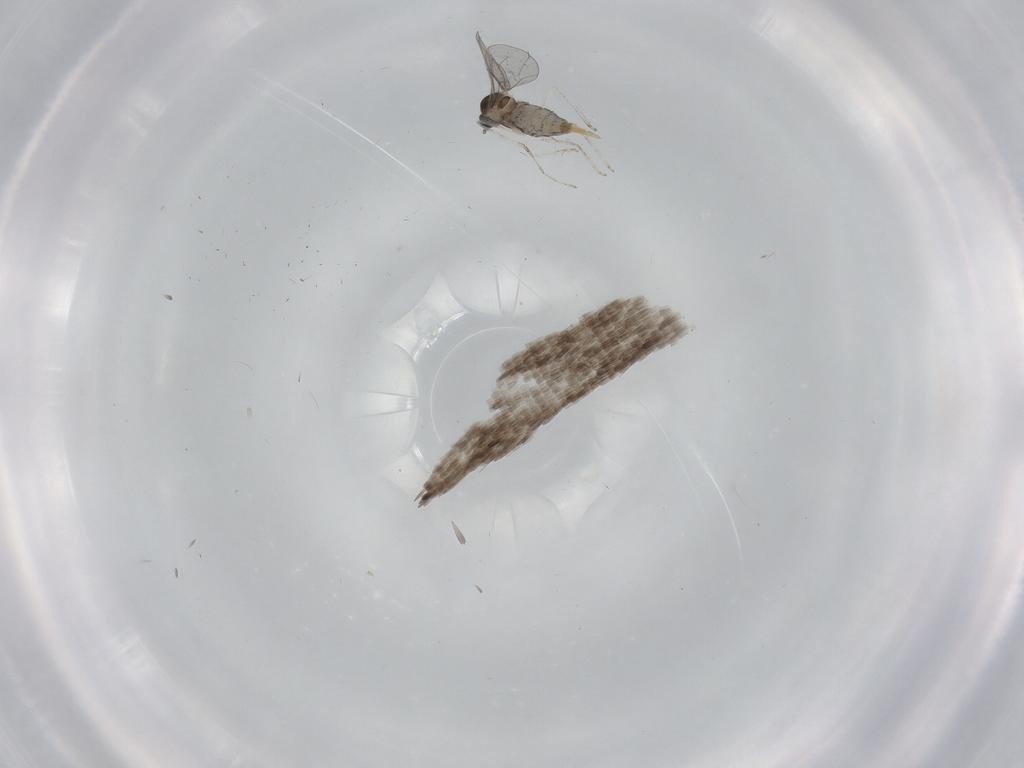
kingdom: Animalia
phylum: Arthropoda
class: Insecta
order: Diptera
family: Cecidomyiidae
